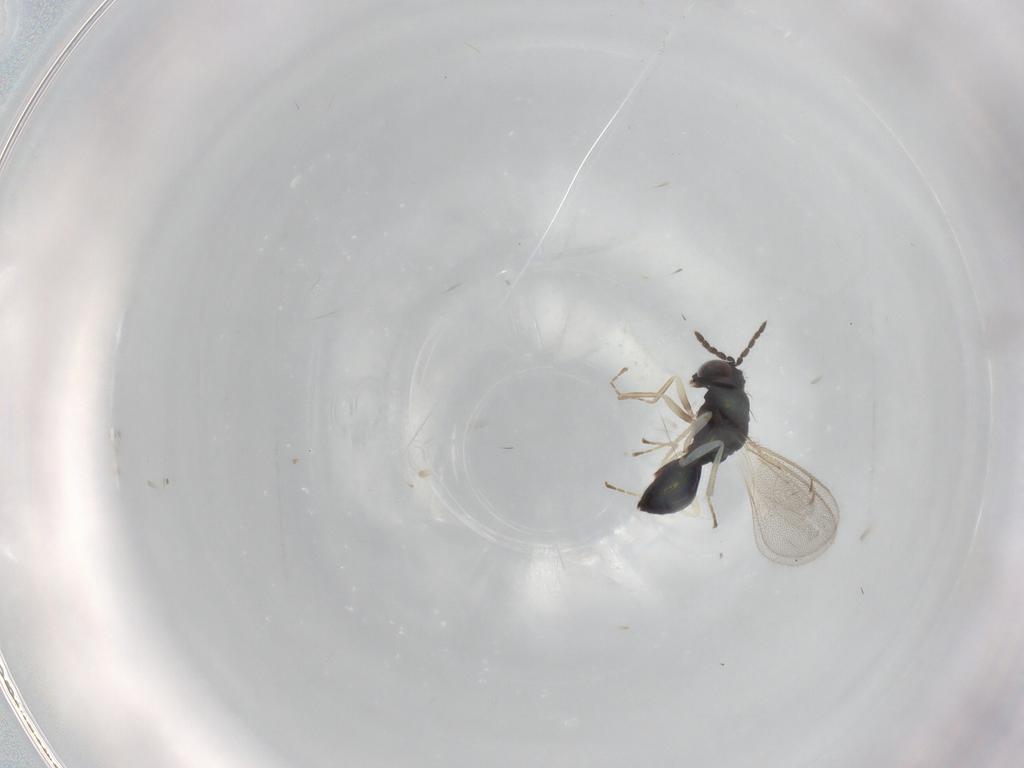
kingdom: Animalia
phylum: Arthropoda
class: Insecta
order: Hymenoptera
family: Eulophidae
